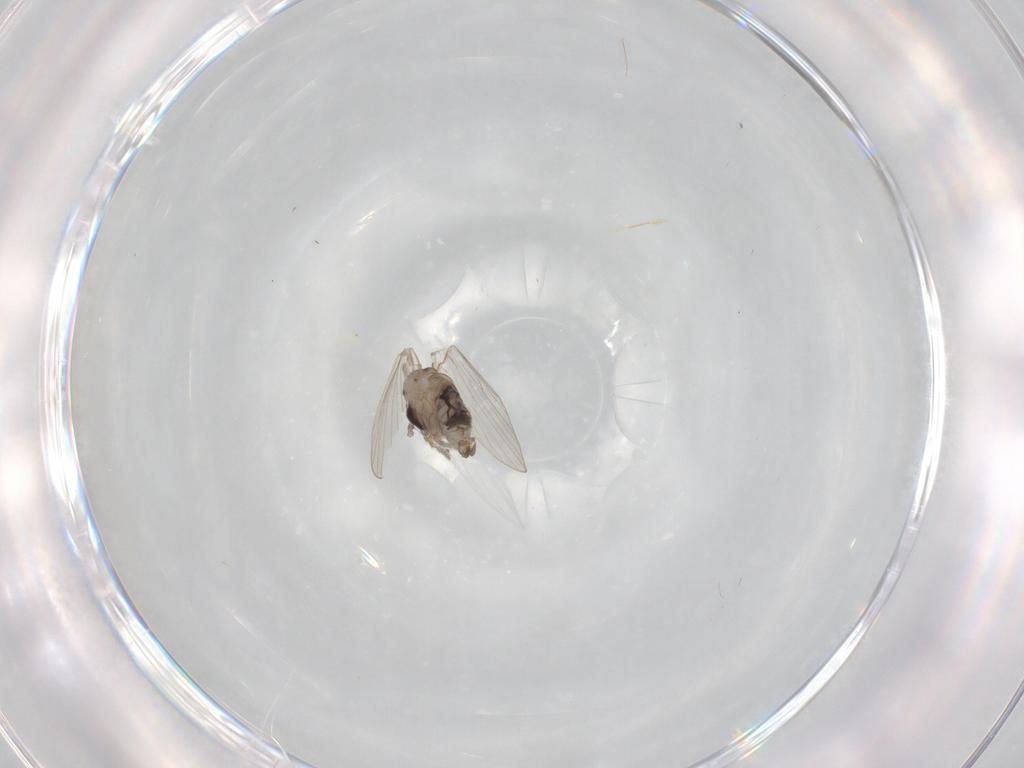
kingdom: Animalia
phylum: Arthropoda
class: Insecta
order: Diptera
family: Psychodidae
